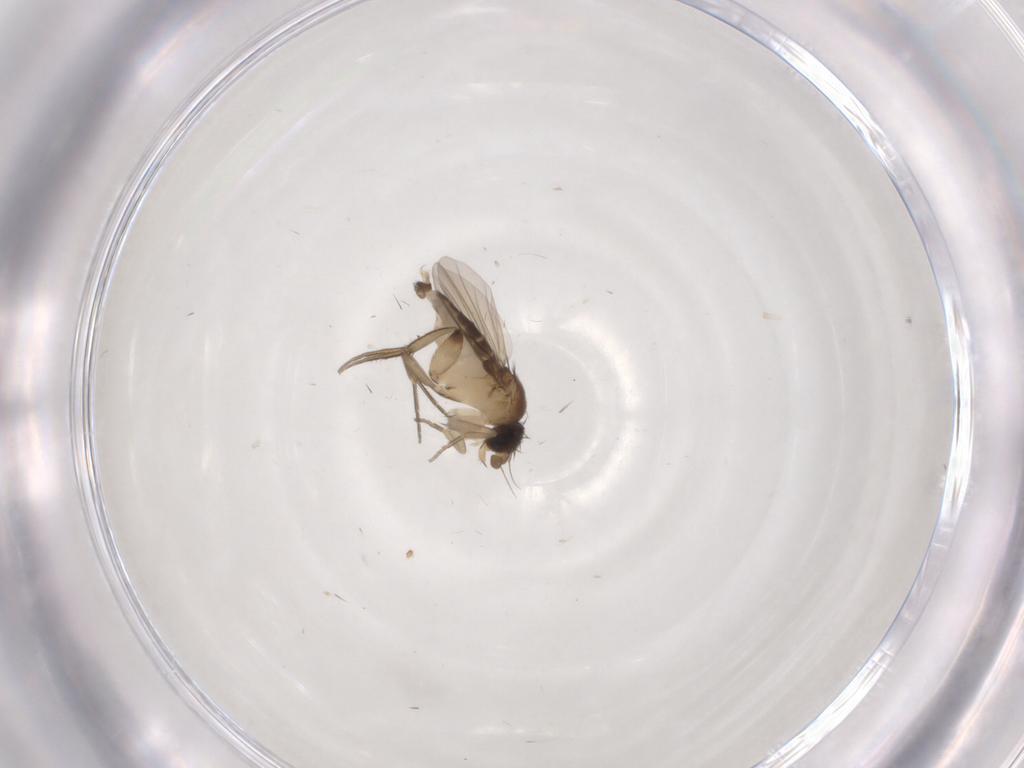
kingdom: Animalia
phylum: Arthropoda
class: Insecta
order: Diptera
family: Phoridae
